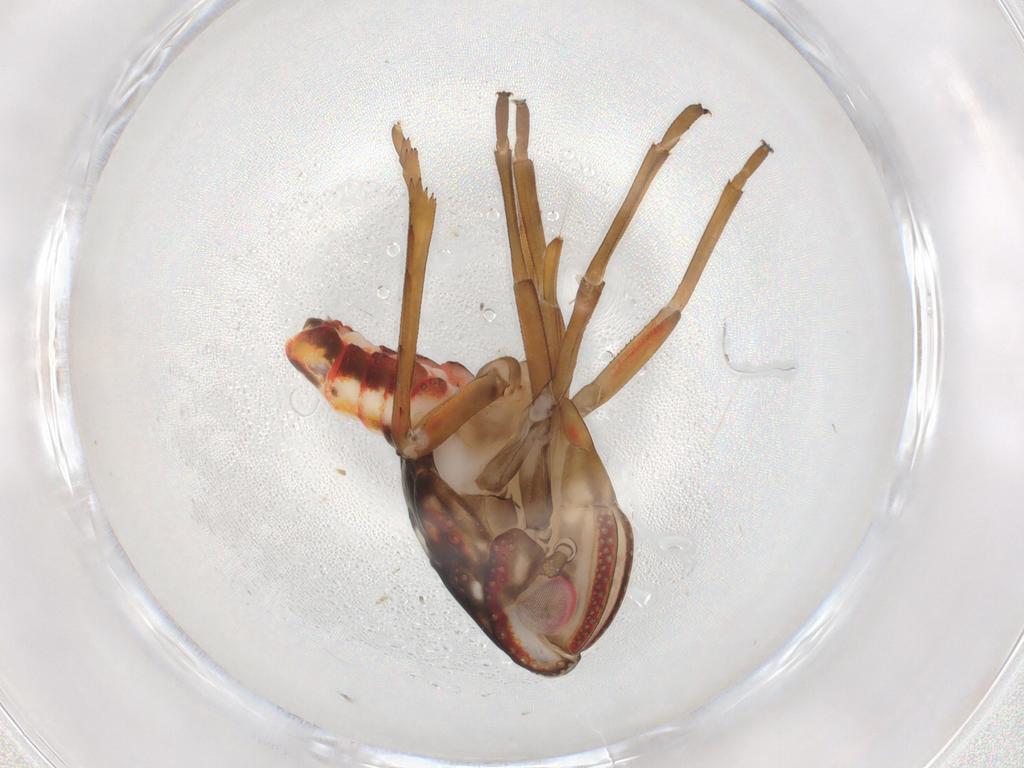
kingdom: Animalia
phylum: Arthropoda
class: Insecta
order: Hemiptera
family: Nogodinidae
